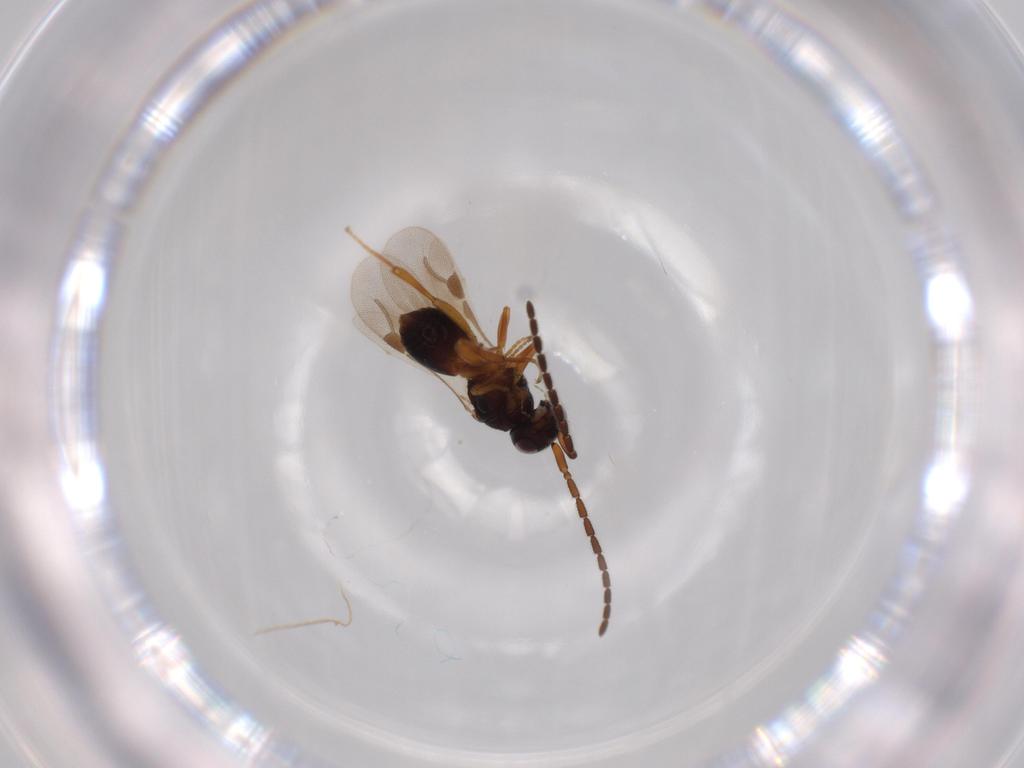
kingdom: Animalia
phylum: Arthropoda
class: Insecta
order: Hymenoptera
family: Megaspilidae
